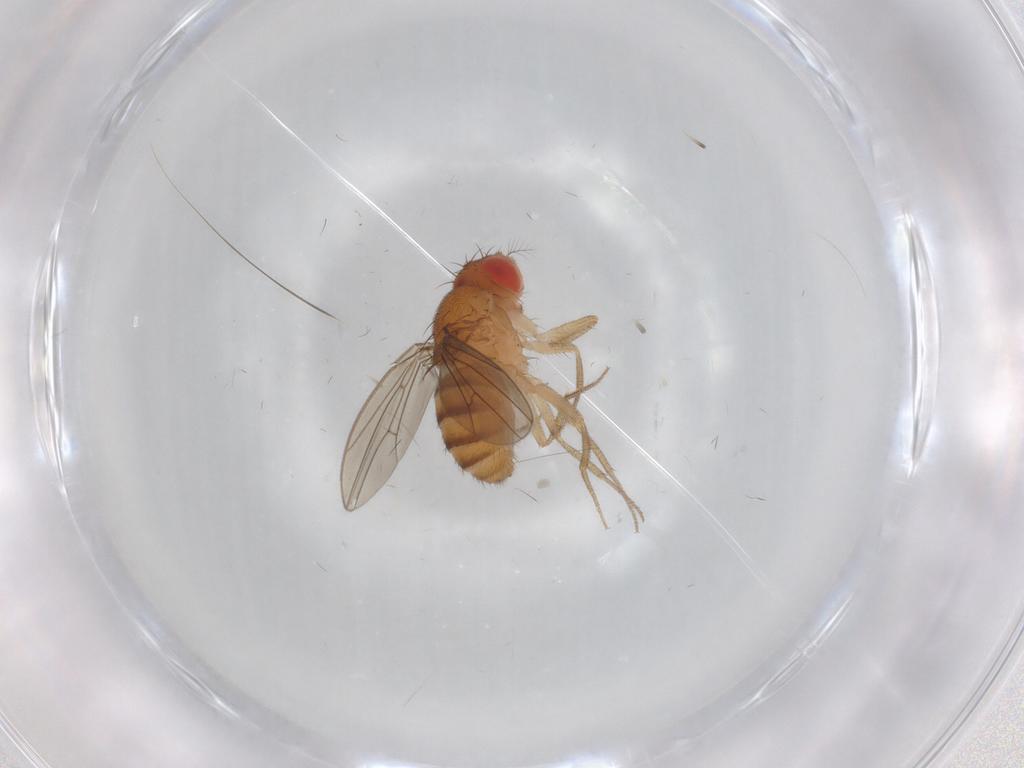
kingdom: Animalia
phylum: Arthropoda
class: Insecta
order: Diptera
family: Drosophilidae
